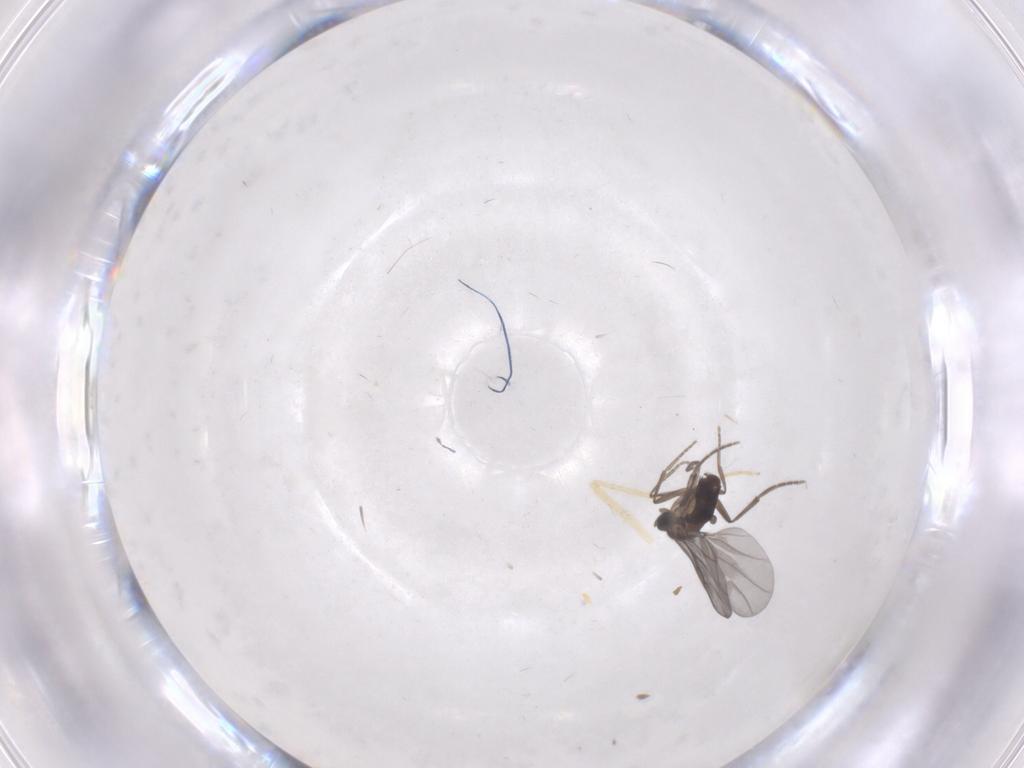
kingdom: Animalia
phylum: Arthropoda
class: Insecta
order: Diptera
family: Chironomidae
